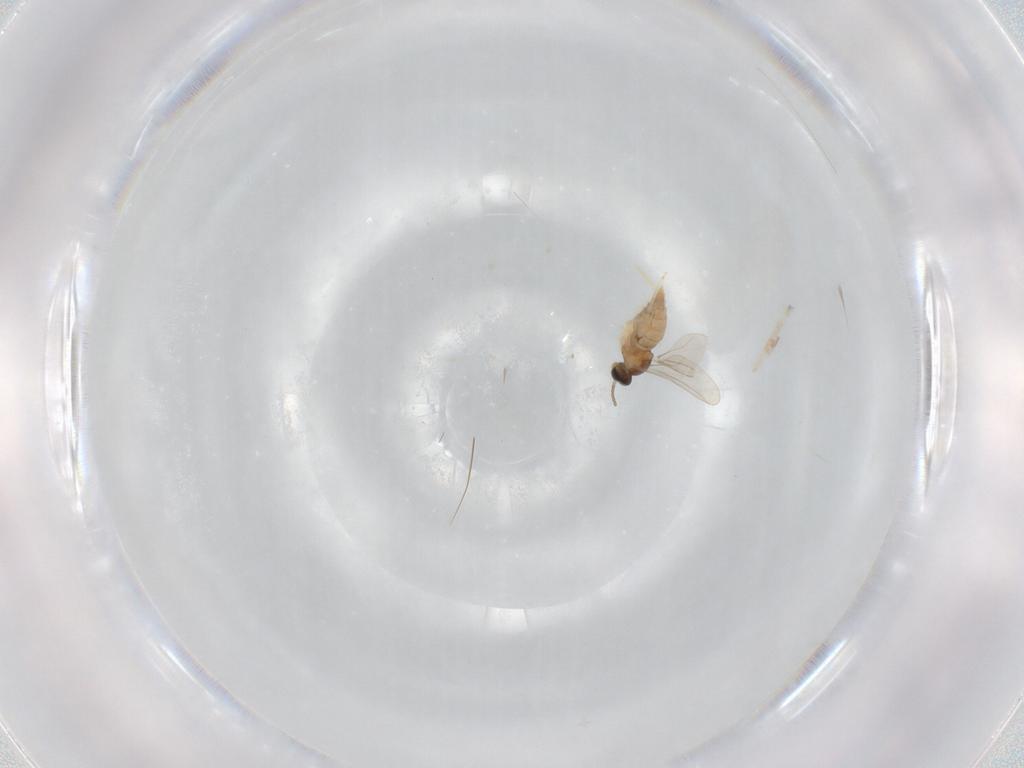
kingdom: Animalia
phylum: Arthropoda
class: Insecta
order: Diptera
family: Cecidomyiidae
